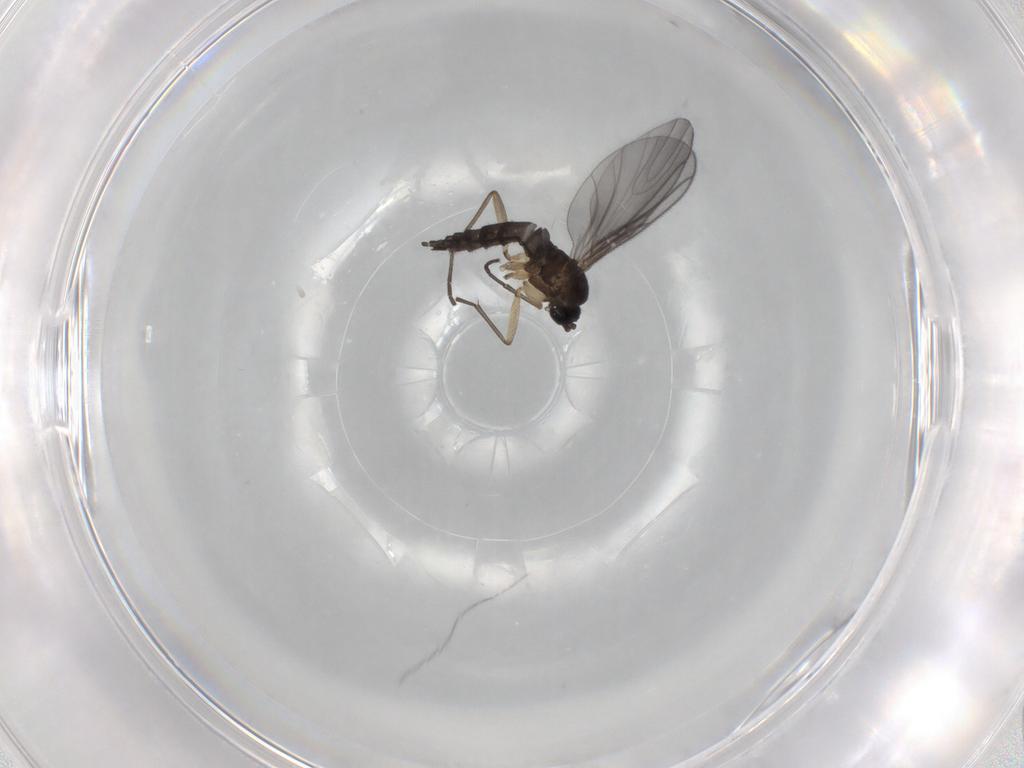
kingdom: Animalia
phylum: Arthropoda
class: Insecta
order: Diptera
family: Sciaridae
